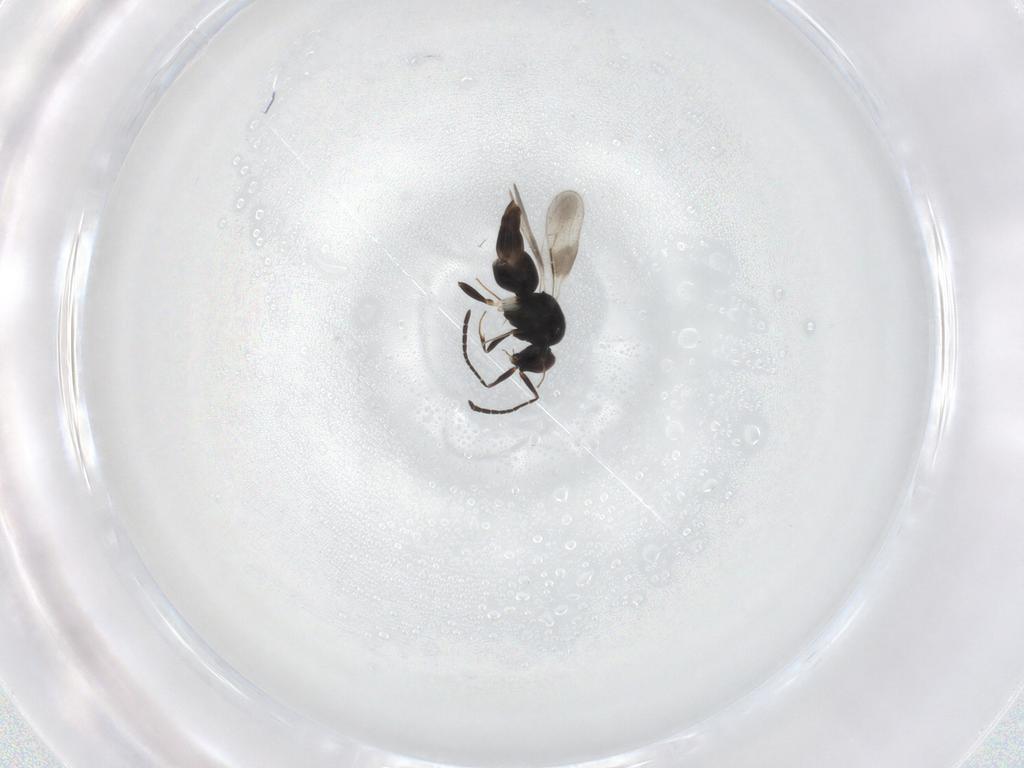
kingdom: Animalia
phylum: Arthropoda
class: Insecta
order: Hymenoptera
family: Ceraphronidae
